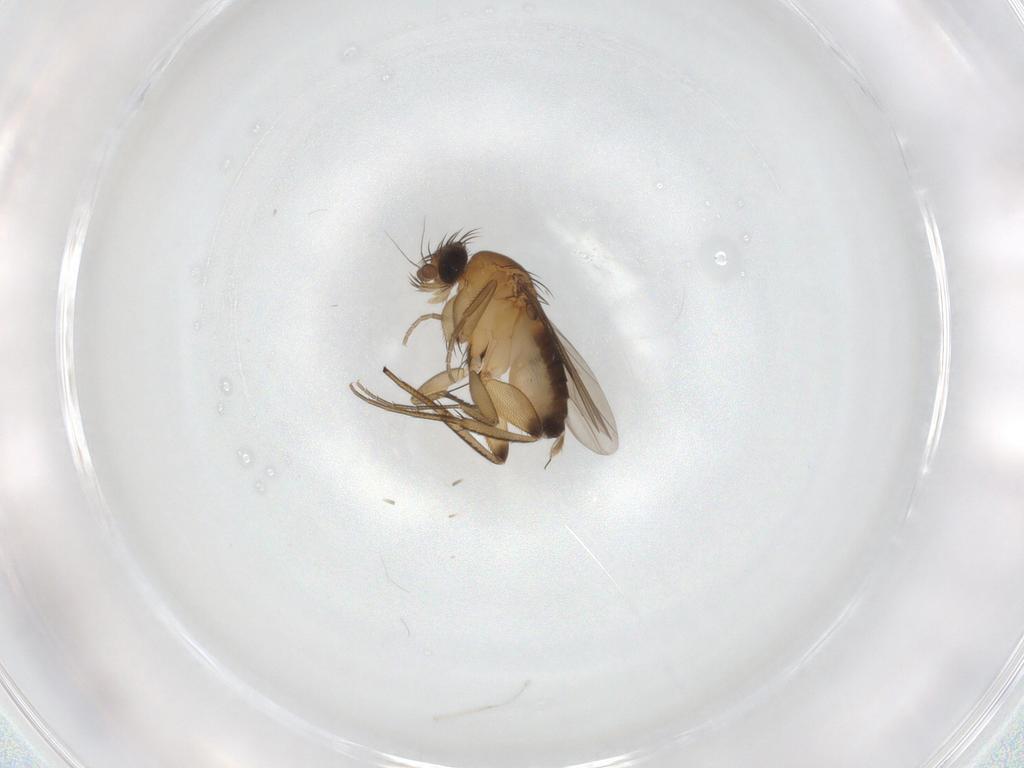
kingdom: Animalia
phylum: Arthropoda
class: Insecta
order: Diptera
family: Phoridae
